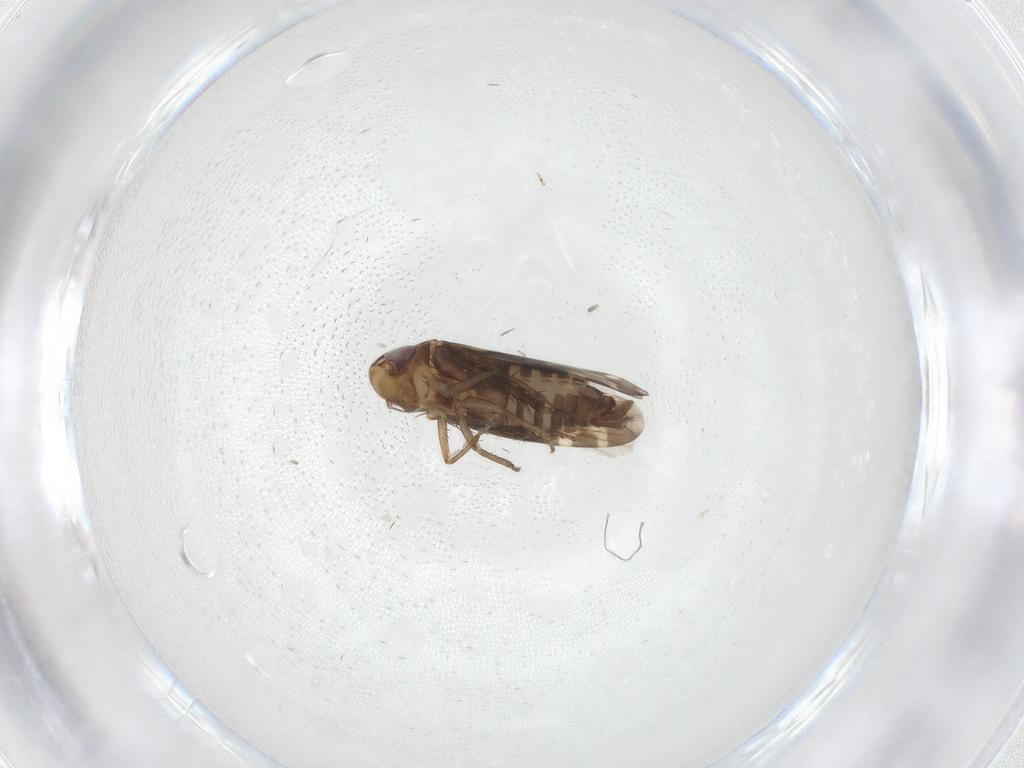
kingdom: Animalia
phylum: Arthropoda
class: Insecta
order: Hemiptera
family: Cicadellidae
